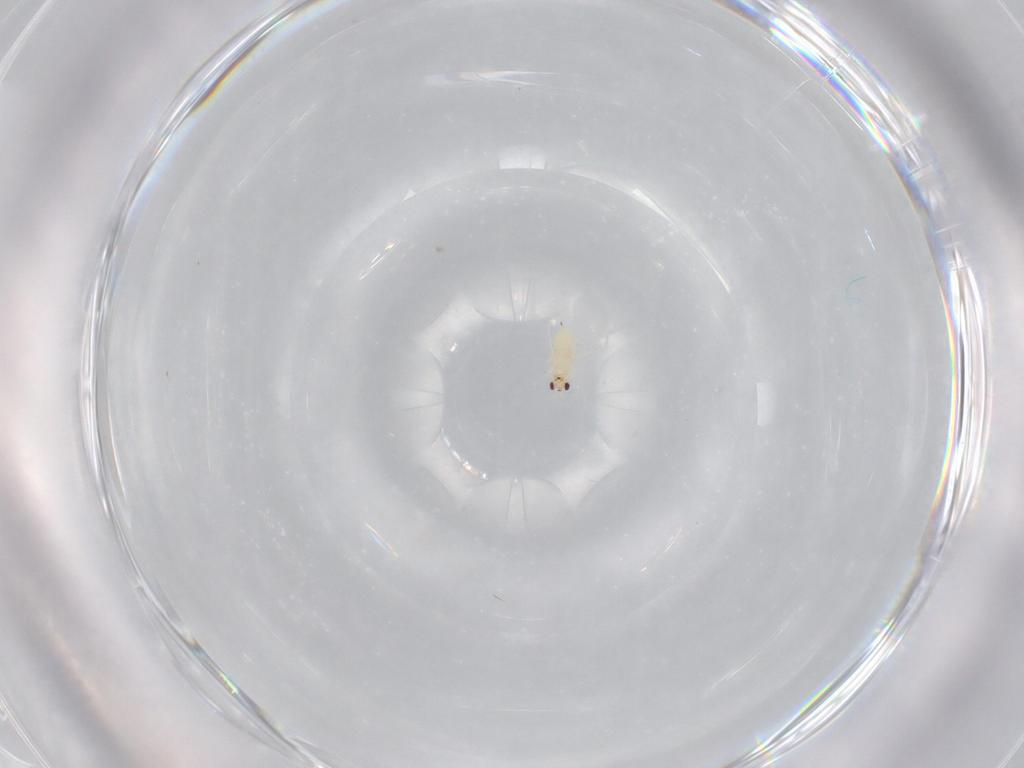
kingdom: Animalia
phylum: Arthropoda
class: Insecta
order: Hymenoptera
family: Mymaridae
